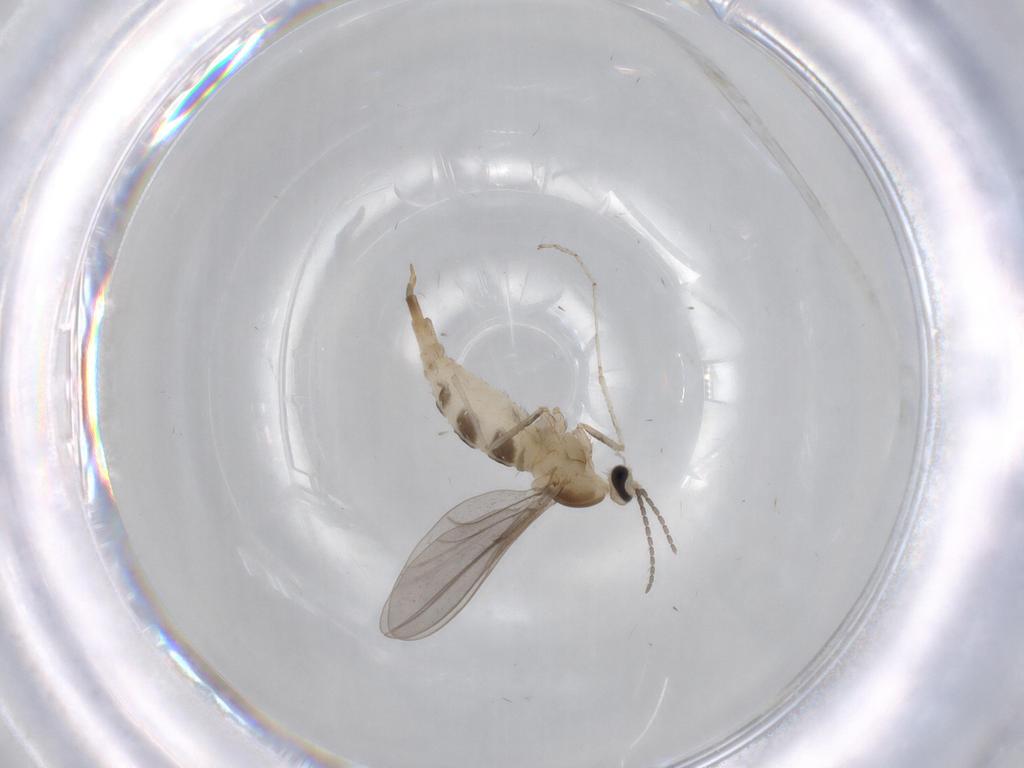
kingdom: Animalia
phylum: Arthropoda
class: Insecta
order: Diptera
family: Cecidomyiidae
